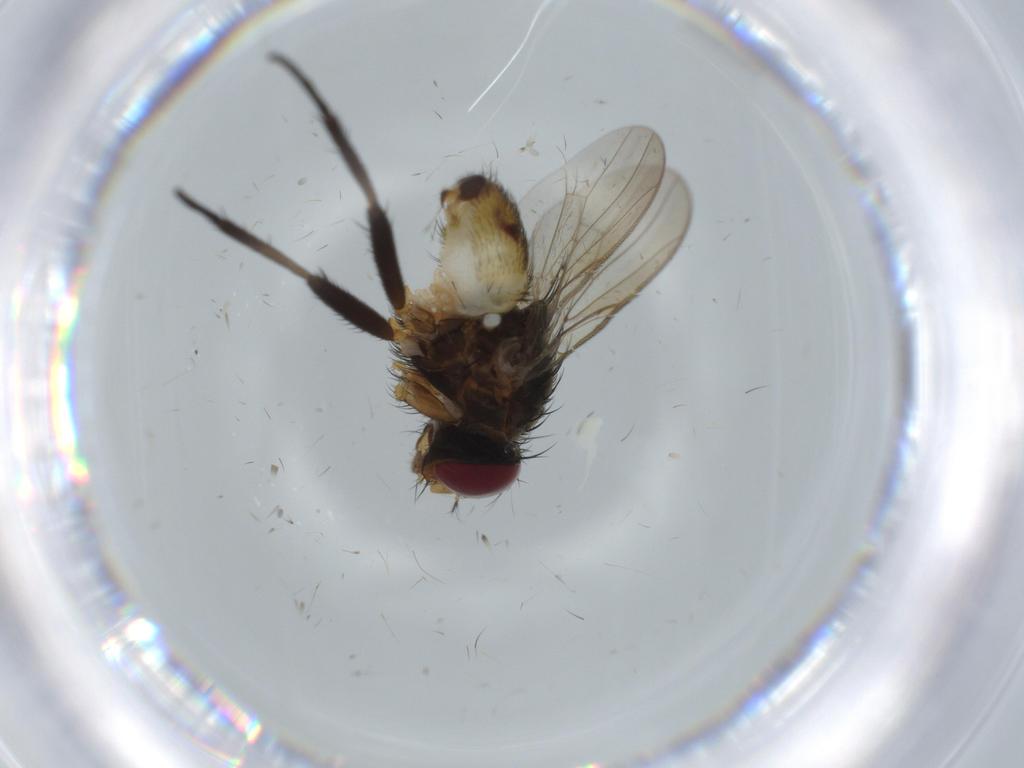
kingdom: Animalia
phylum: Arthropoda
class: Insecta
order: Diptera
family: Anthomyiidae
